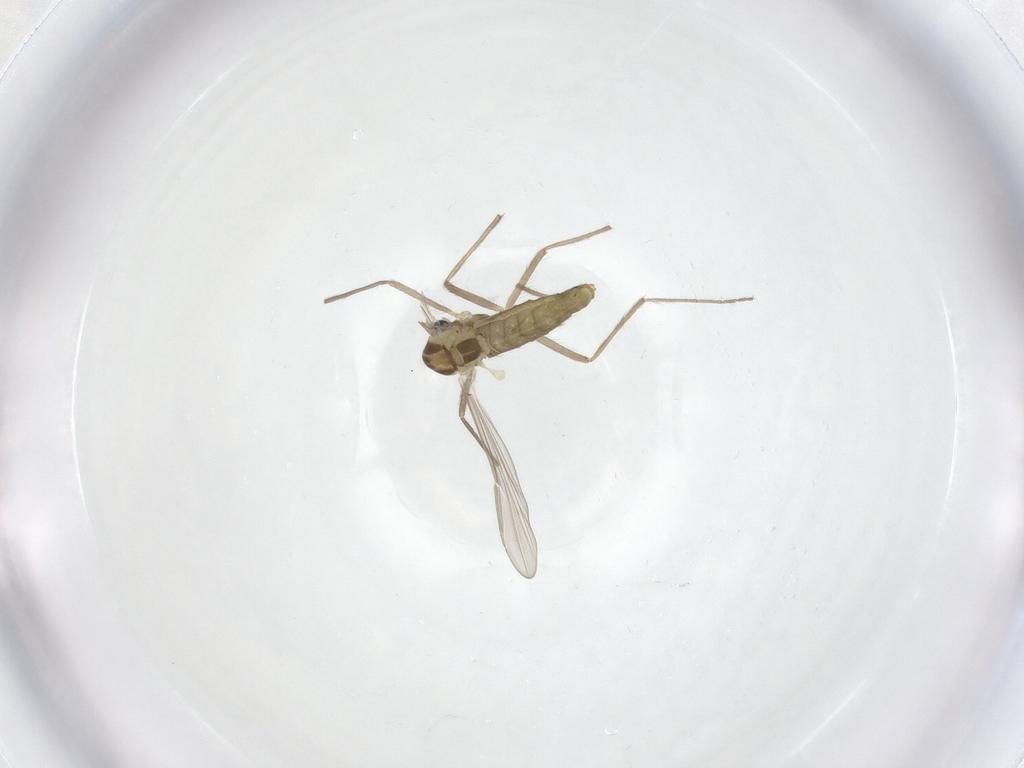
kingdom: Animalia
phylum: Arthropoda
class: Insecta
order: Diptera
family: Chironomidae
